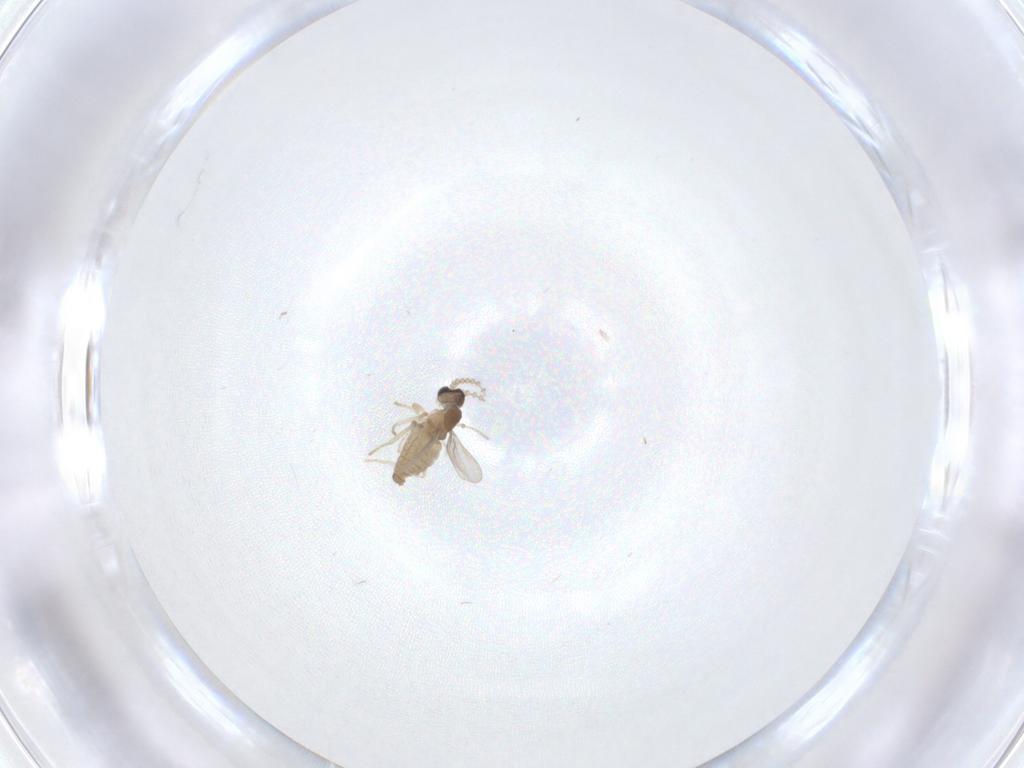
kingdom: Animalia
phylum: Arthropoda
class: Insecta
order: Diptera
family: Cecidomyiidae
